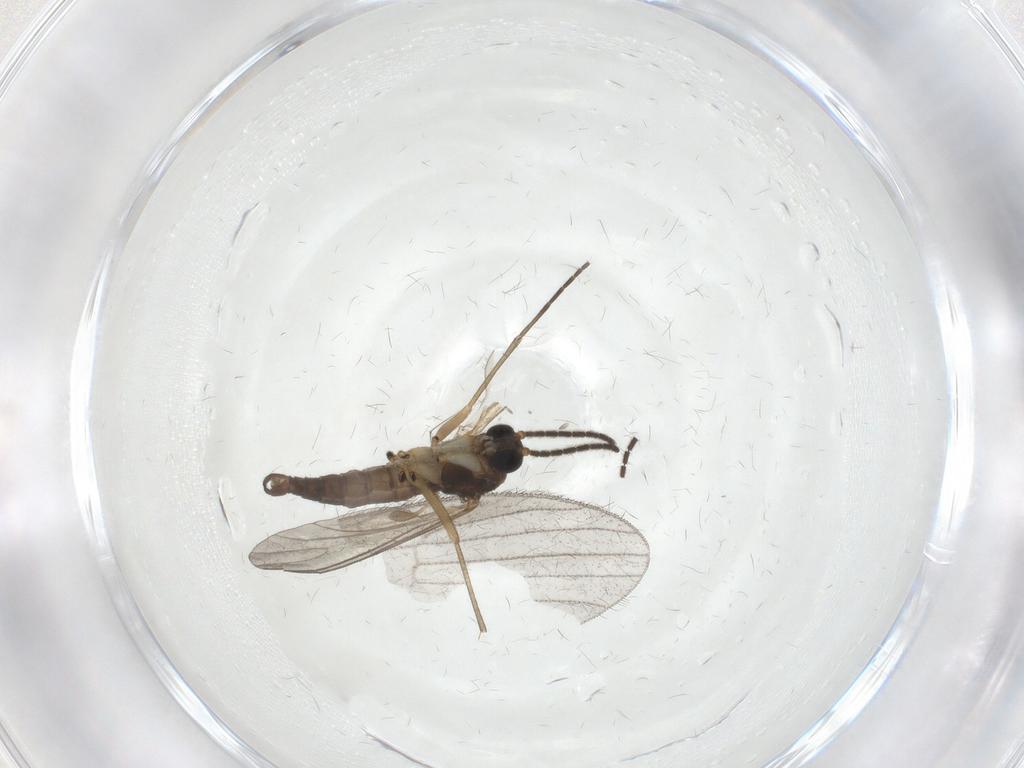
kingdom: Animalia
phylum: Arthropoda
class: Insecta
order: Diptera
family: Sciaridae
